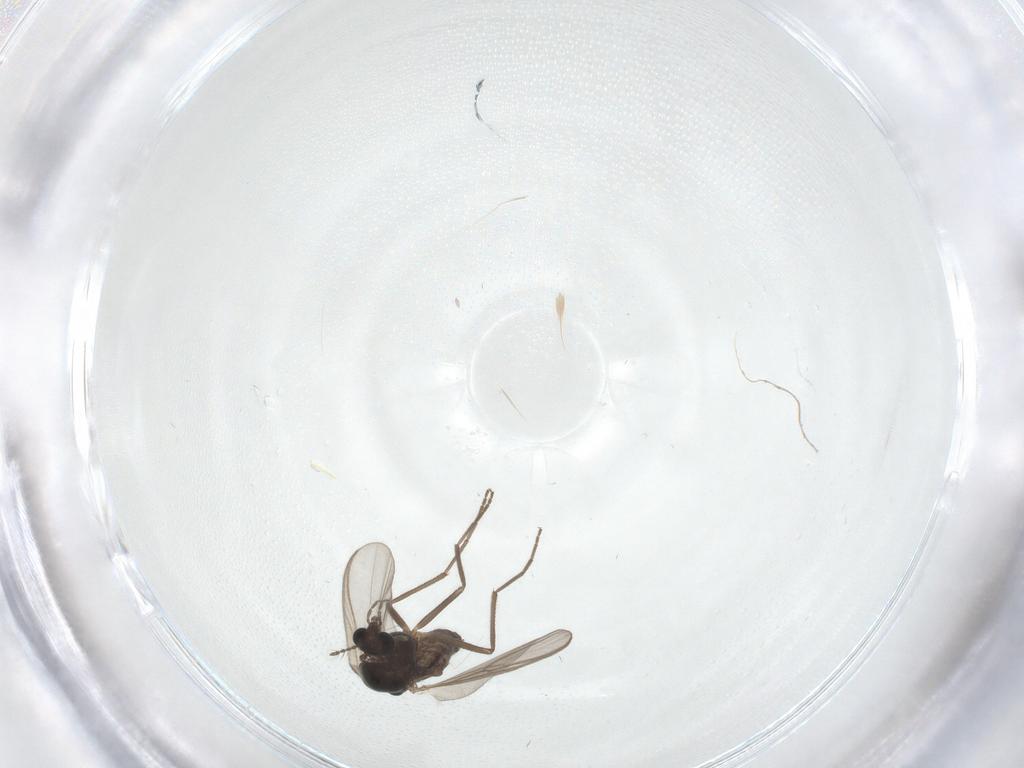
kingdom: Animalia
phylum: Arthropoda
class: Insecta
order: Diptera
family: Chironomidae
